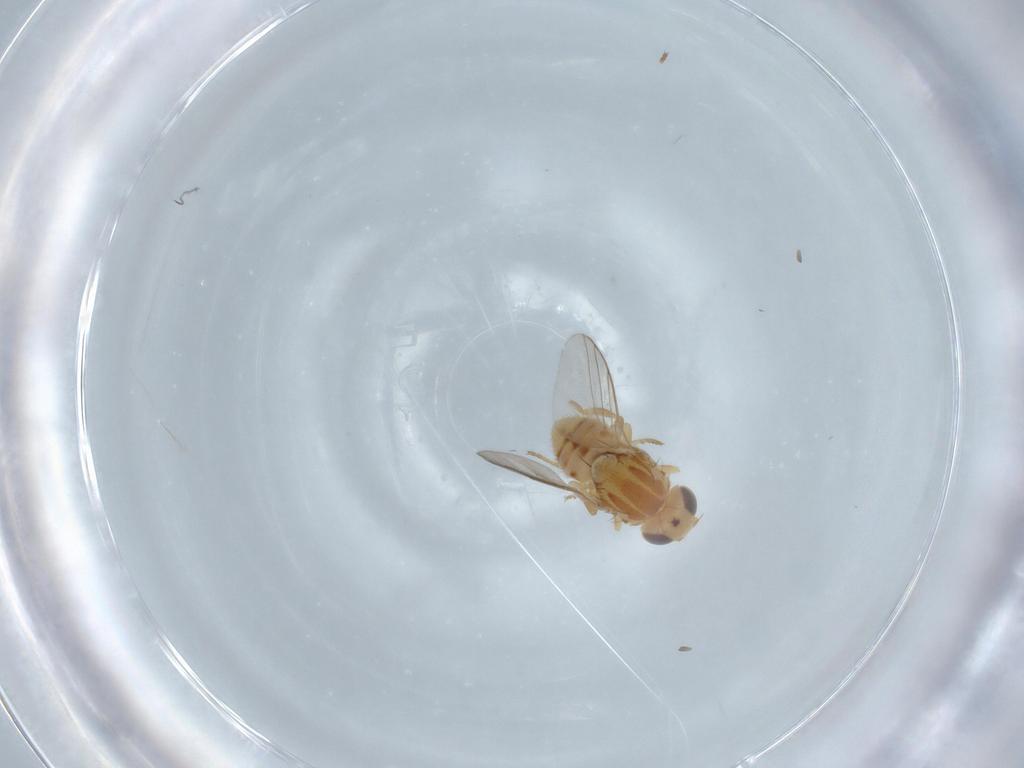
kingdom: Animalia
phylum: Arthropoda
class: Insecta
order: Diptera
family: Chloropidae
